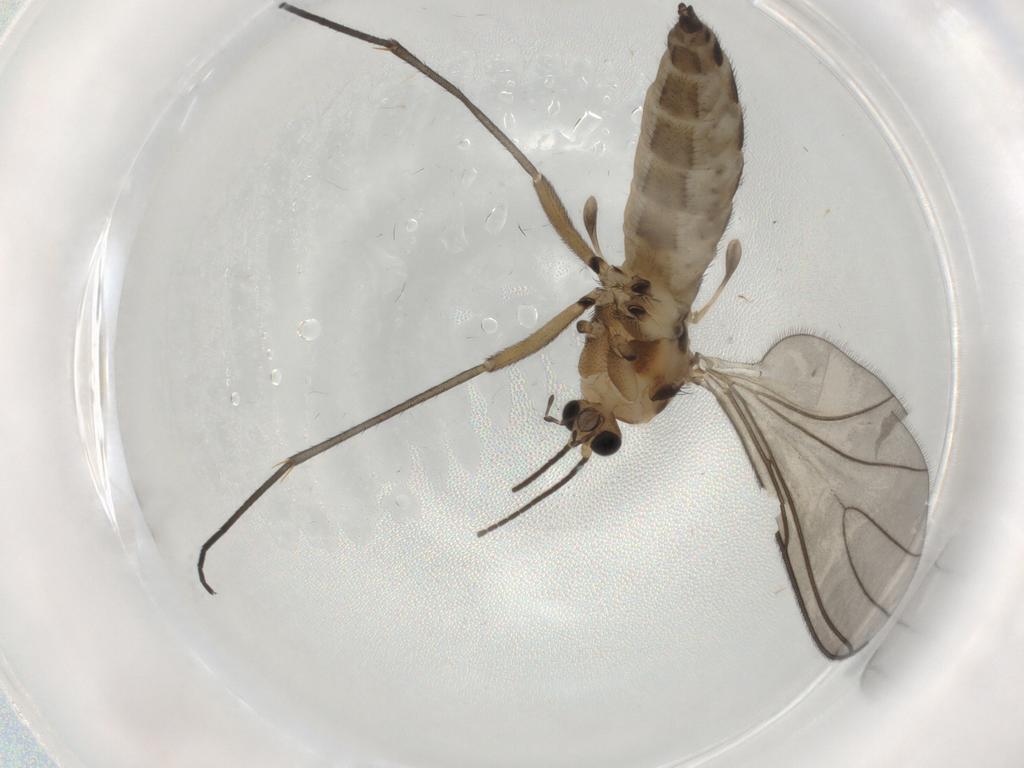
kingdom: Animalia
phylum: Arthropoda
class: Insecta
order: Diptera
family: Sciaridae
